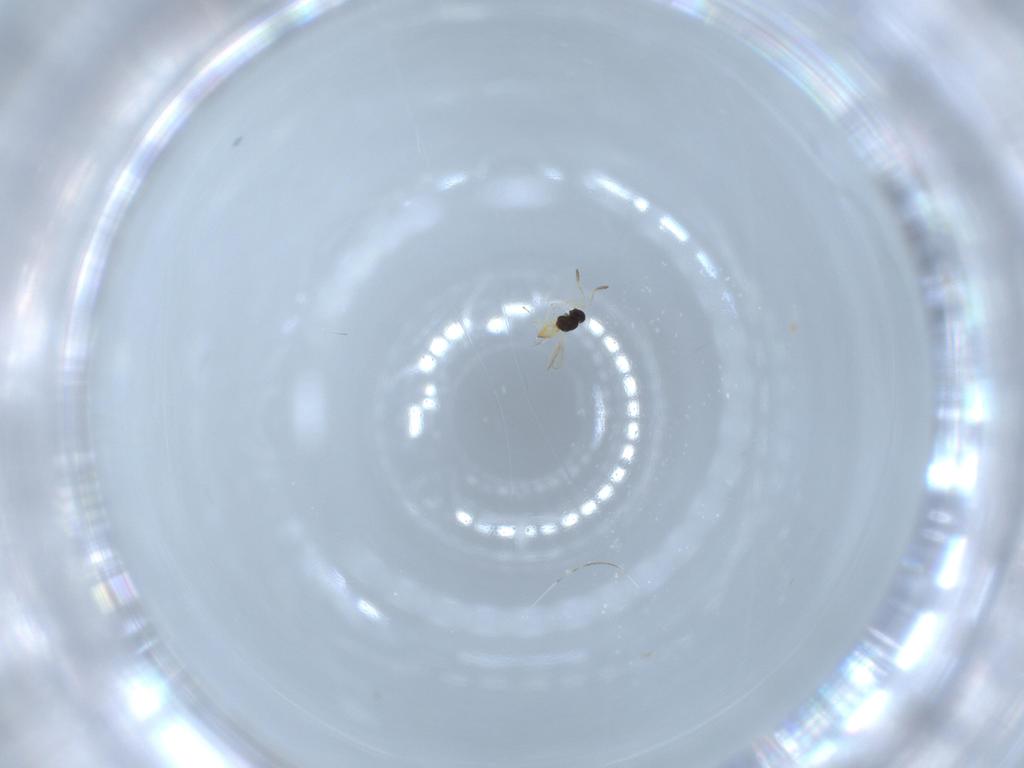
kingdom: Animalia
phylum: Arthropoda
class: Insecta
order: Hymenoptera
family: Scelionidae
